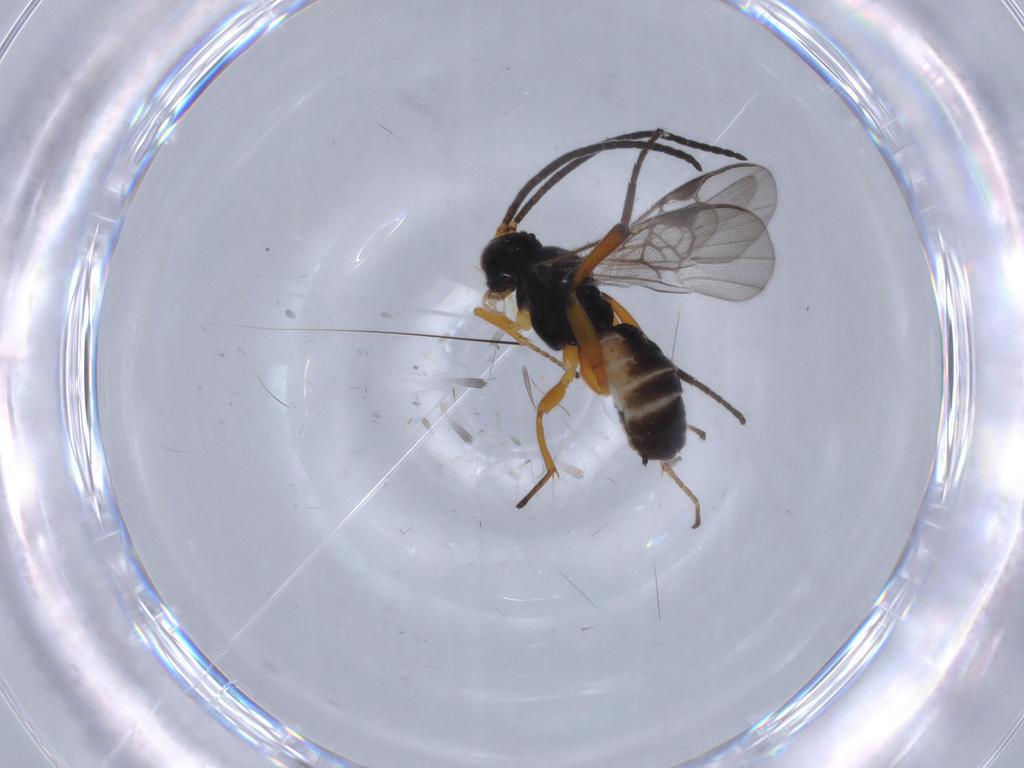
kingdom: Animalia
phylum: Arthropoda
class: Insecta
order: Hymenoptera
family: Braconidae
